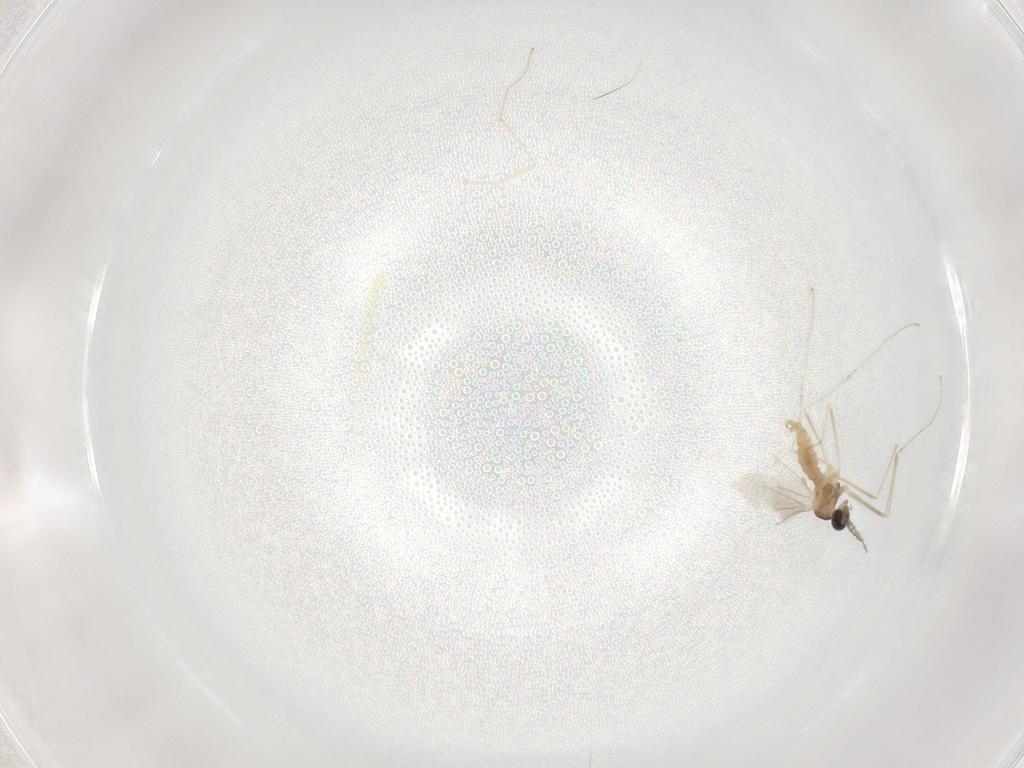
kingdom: Animalia
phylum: Arthropoda
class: Insecta
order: Diptera
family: Cecidomyiidae
